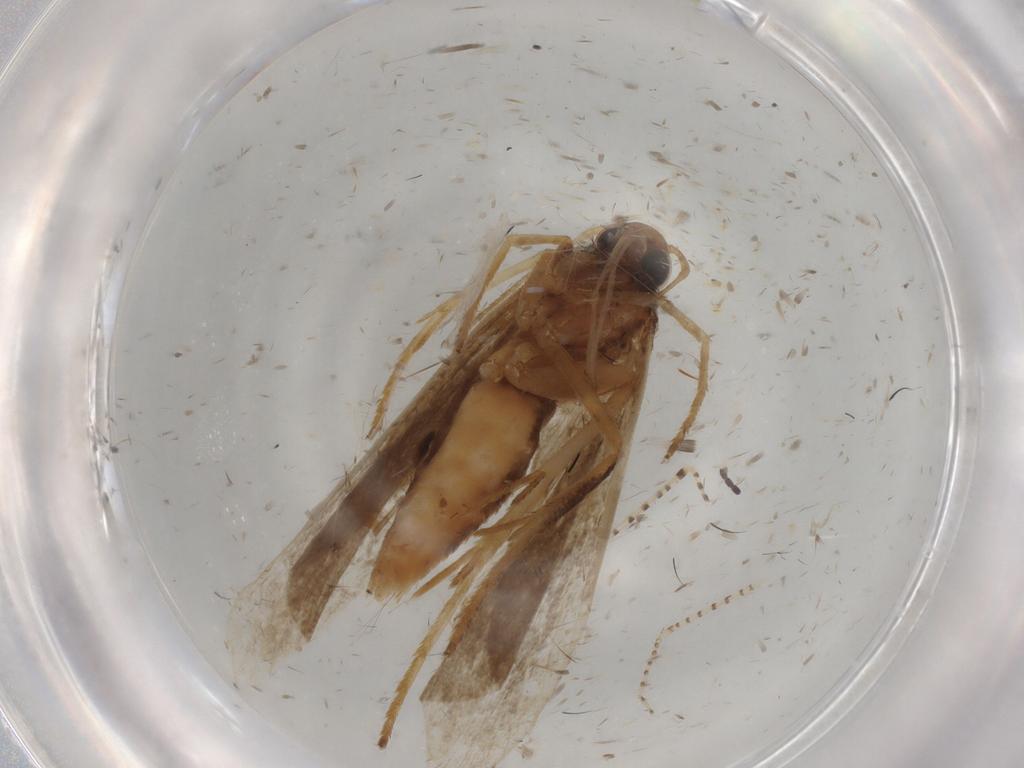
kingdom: Animalia
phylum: Arthropoda
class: Insecta
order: Lepidoptera
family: Gelechiidae
